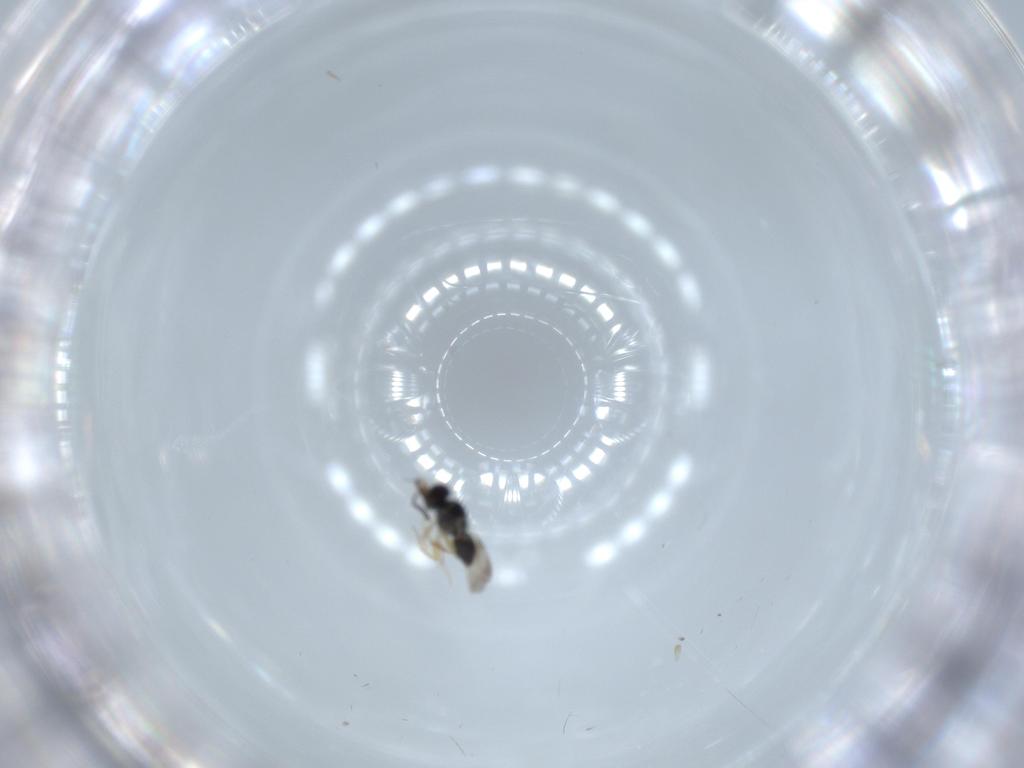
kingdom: Animalia
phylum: Arthropoda
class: Insecta
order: Hymenoptera
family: Ceraphronidae
